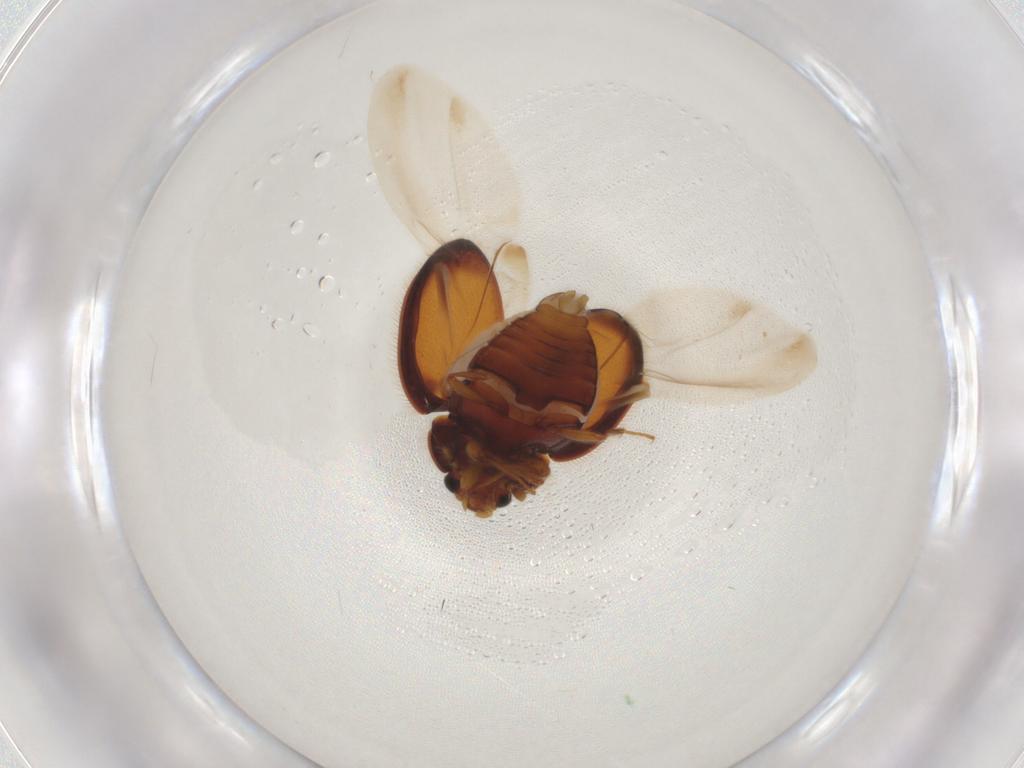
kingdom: Animalia
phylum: Arthropoda
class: Insecta
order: Coleoptera
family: Anamorphidae
